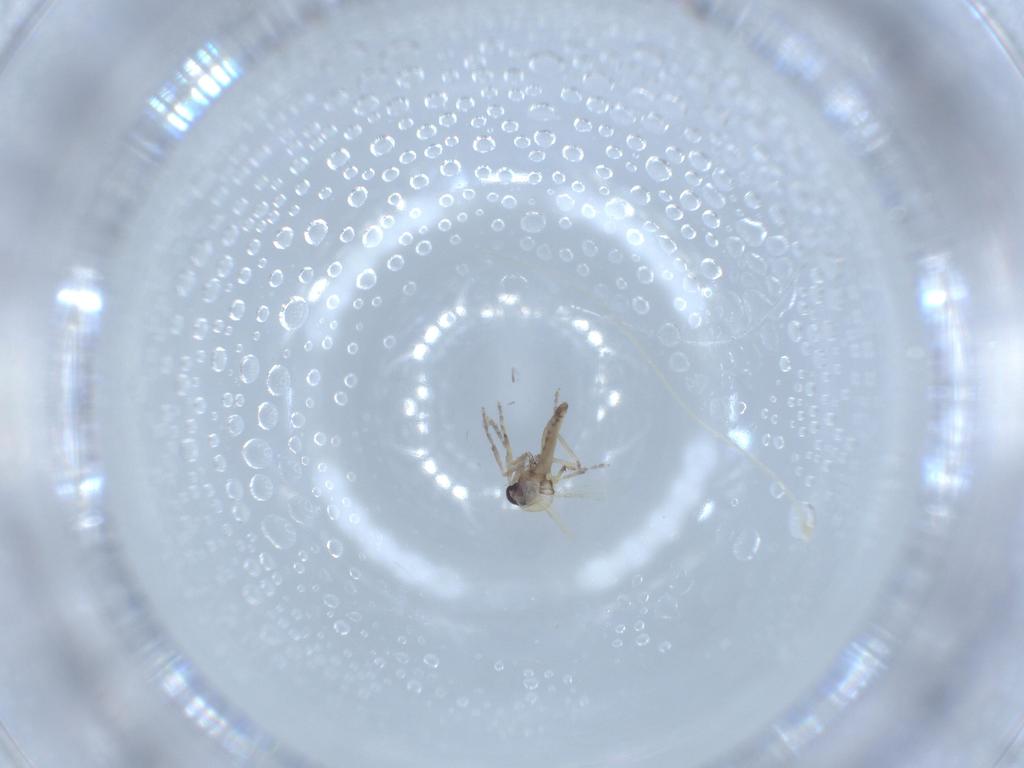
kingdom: Animalia
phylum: Arthropoda
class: Insecta
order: Diptera
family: Ceratopogonidae
